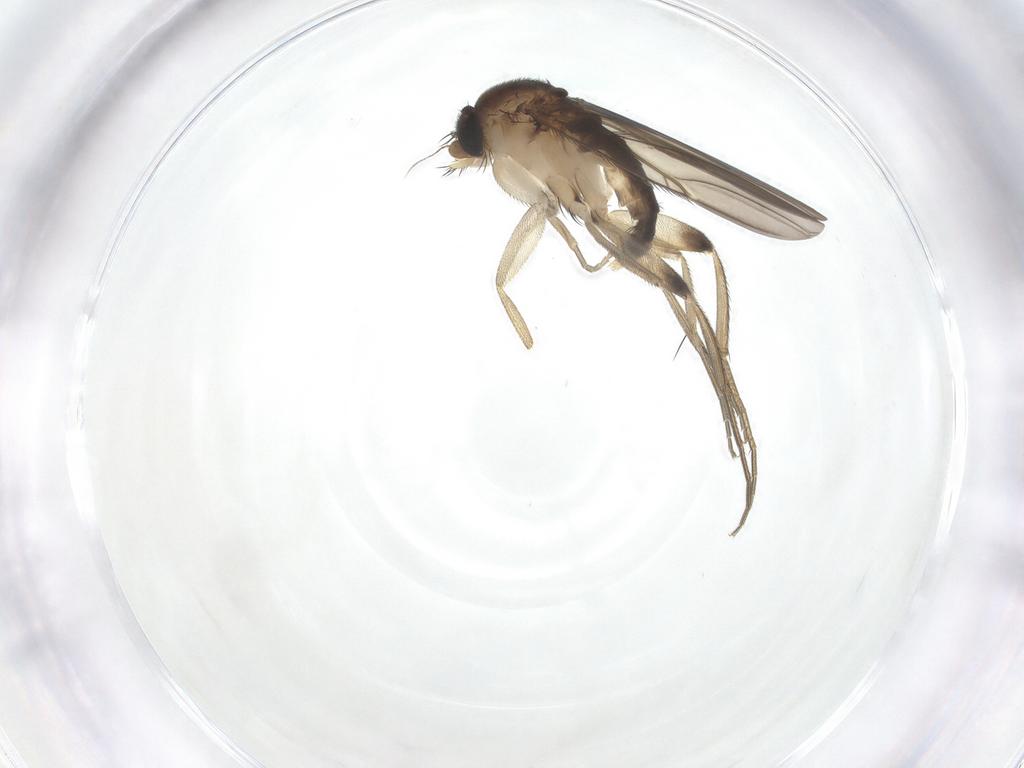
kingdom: Animalia
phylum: Arthropoda
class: Insecta
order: Diptera
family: Phoridae
